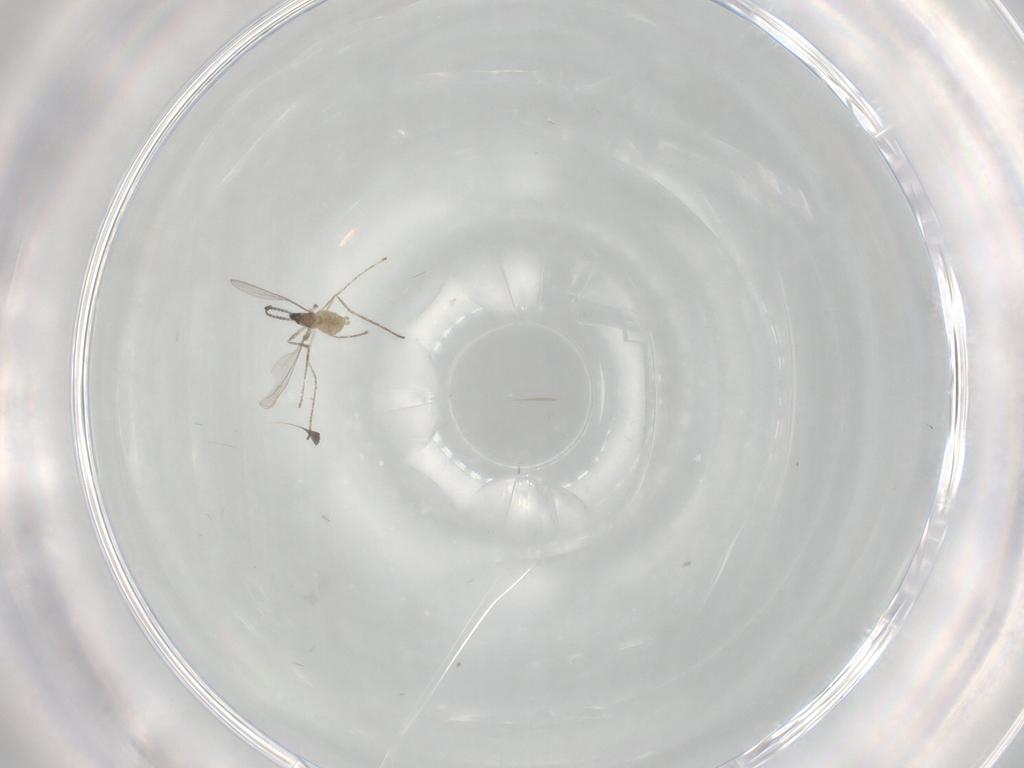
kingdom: Animalia
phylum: Arthropoda
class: Insecta
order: Diptera
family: Cecidomyiidae
